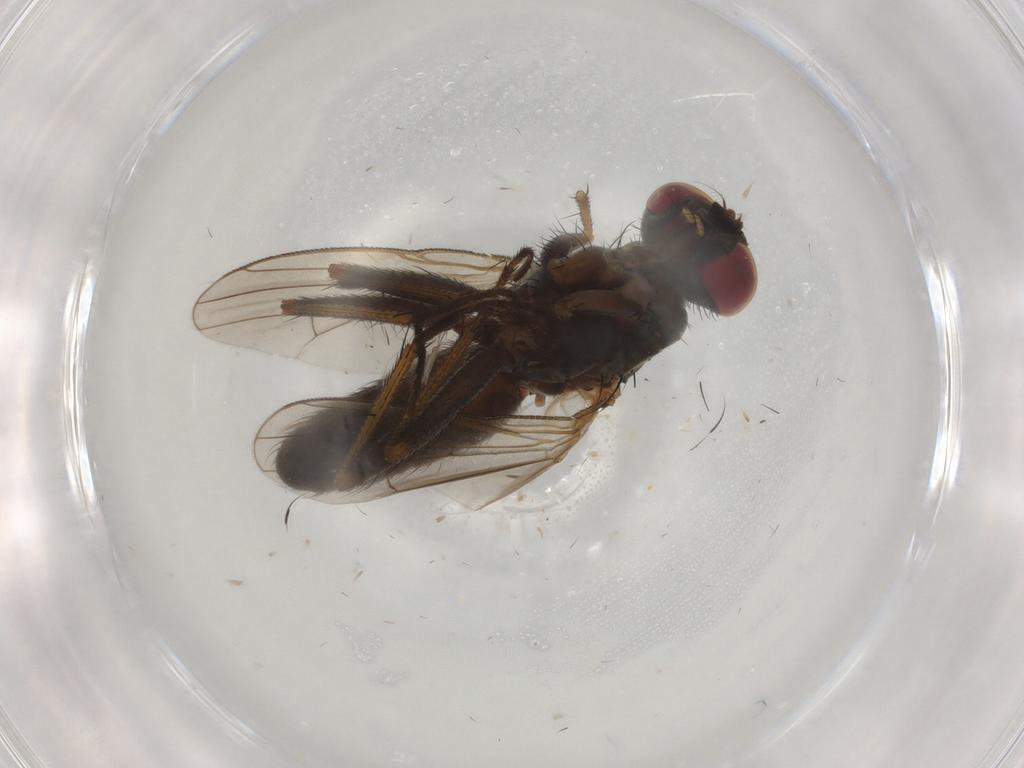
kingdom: Animalia
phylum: Arthropoda
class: Insecta
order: Diptera
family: Muscidae
